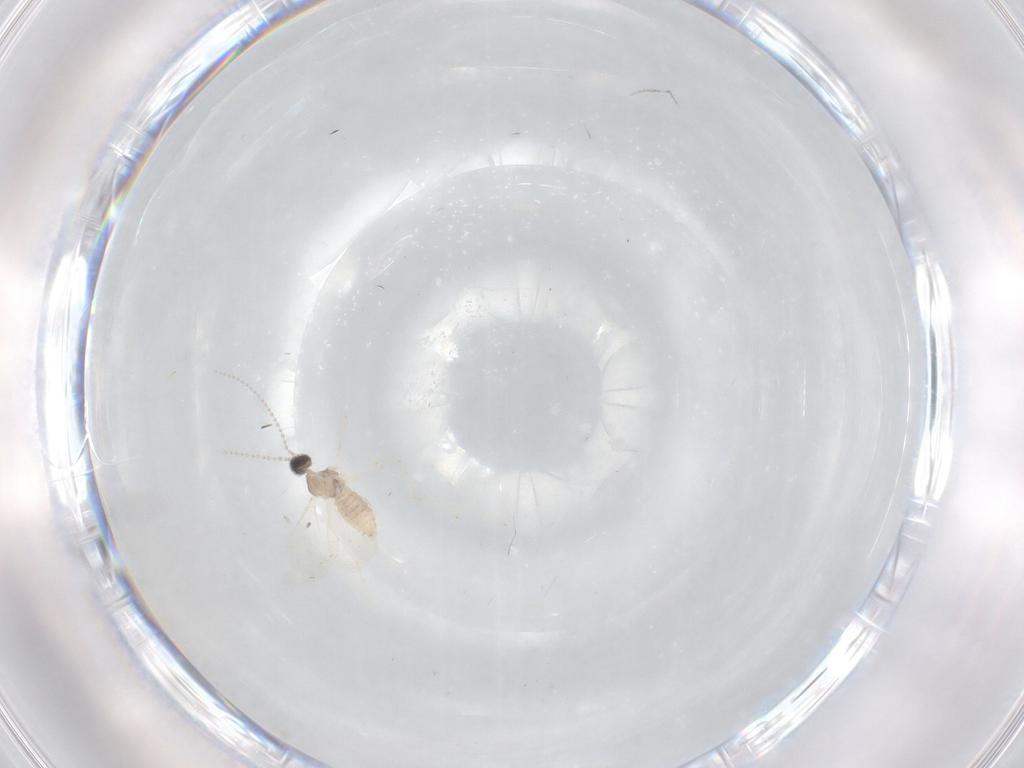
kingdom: Animalia
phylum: Arthropoda
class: Insecta
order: Diptera
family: Cecidomyiidae
